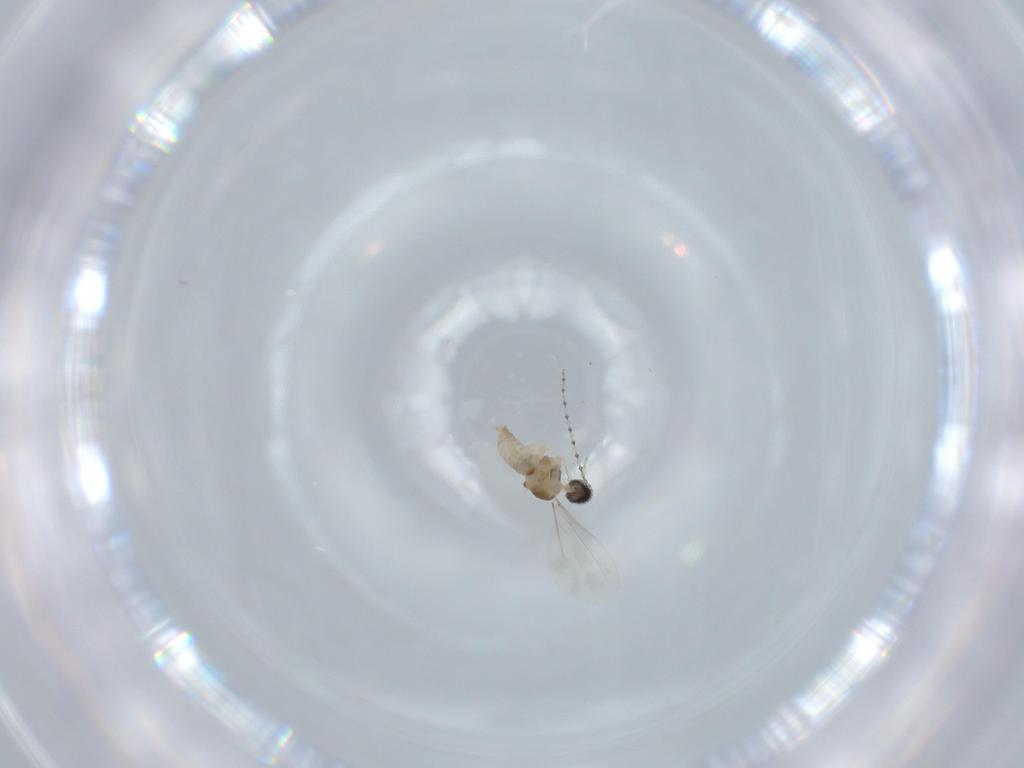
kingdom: Animalia
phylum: Arthropoda
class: Insecta
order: Diptera
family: Cecidomyiidae
